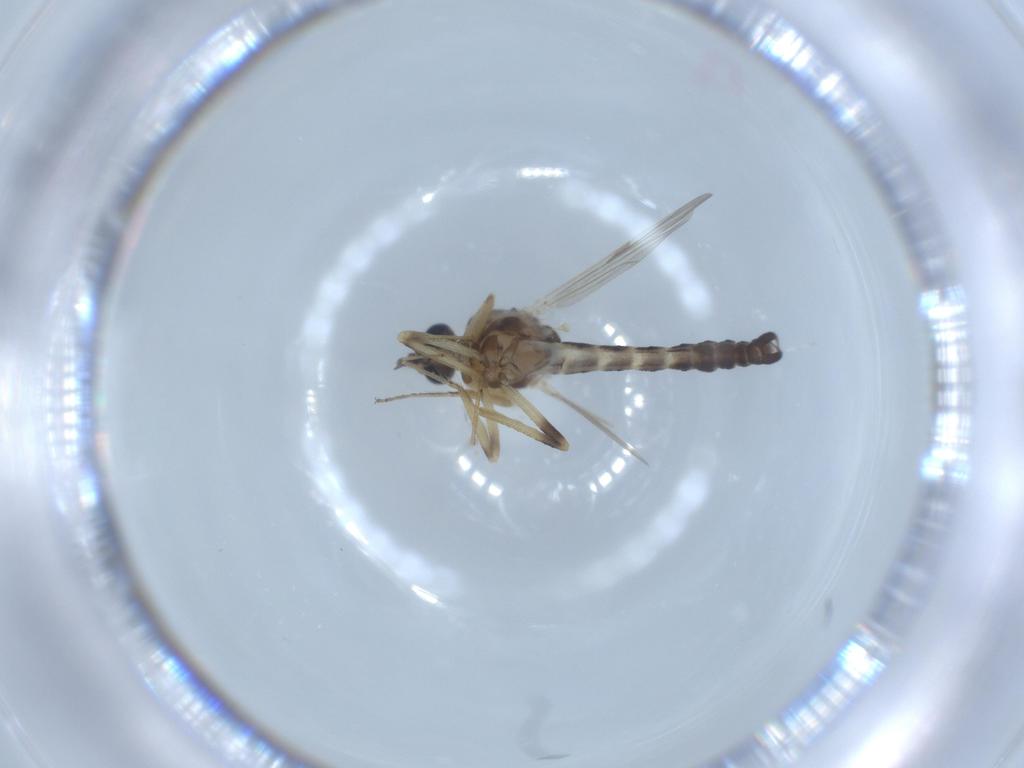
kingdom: Animalia
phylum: Arthropoda
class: Insecta
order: Diptera
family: Ceratopogonidae
